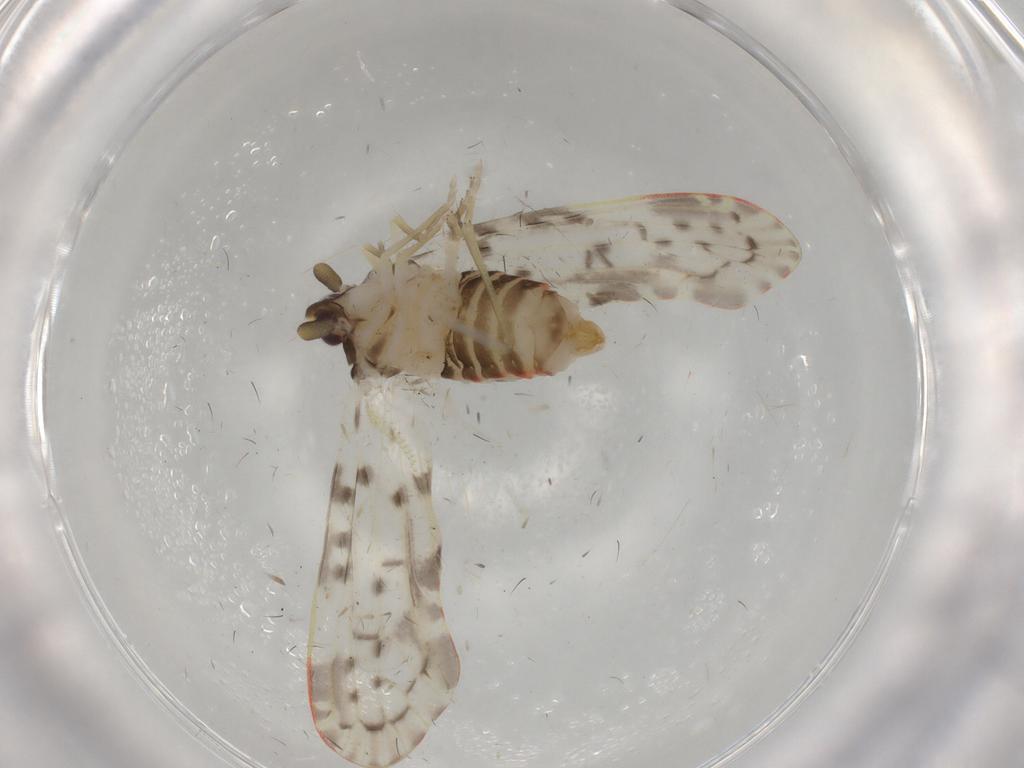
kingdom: Animalia
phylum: Arthropoda
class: Insecta
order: Hemiptera
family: Derbidae
